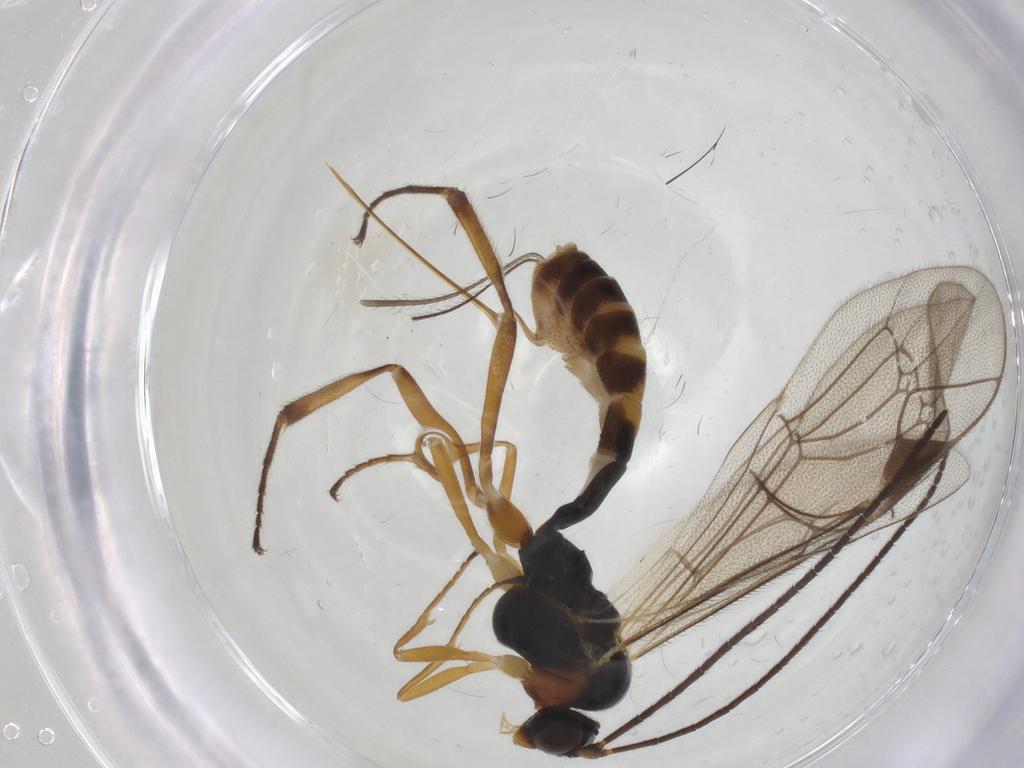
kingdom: Animalia
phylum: Arthropoda
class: Insecta
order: Hymenoptera
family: Ichneumonidae
